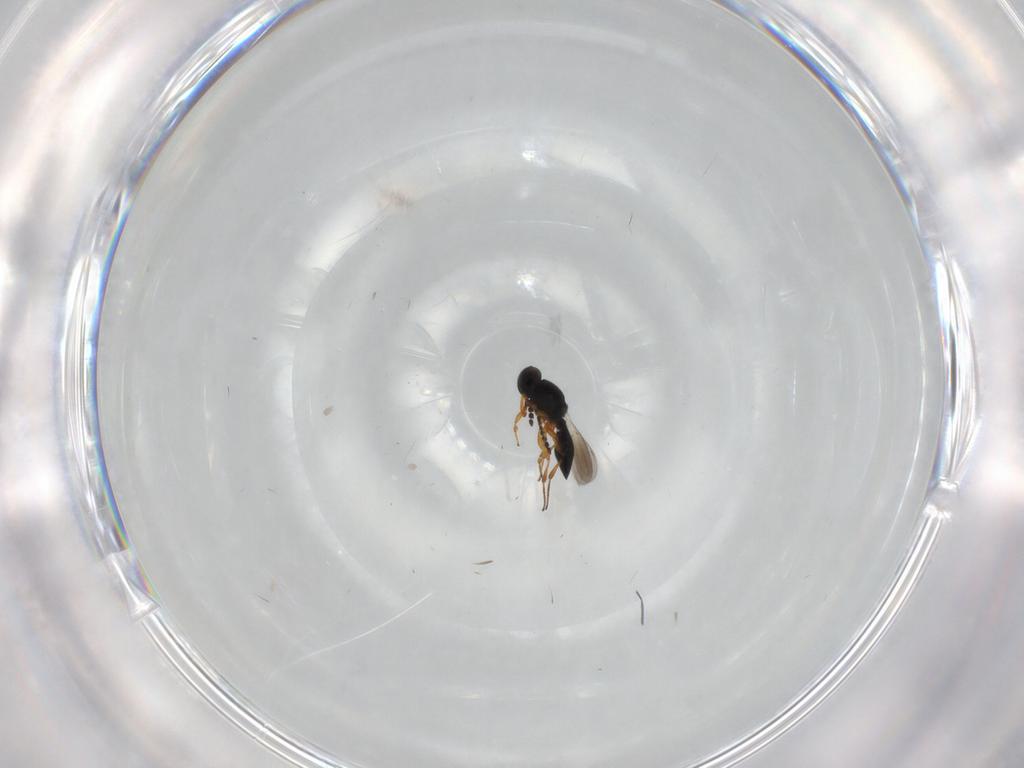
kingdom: Animalia
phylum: Arthropoda
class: Insecta
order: Hymenoptera
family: Platygastridae
